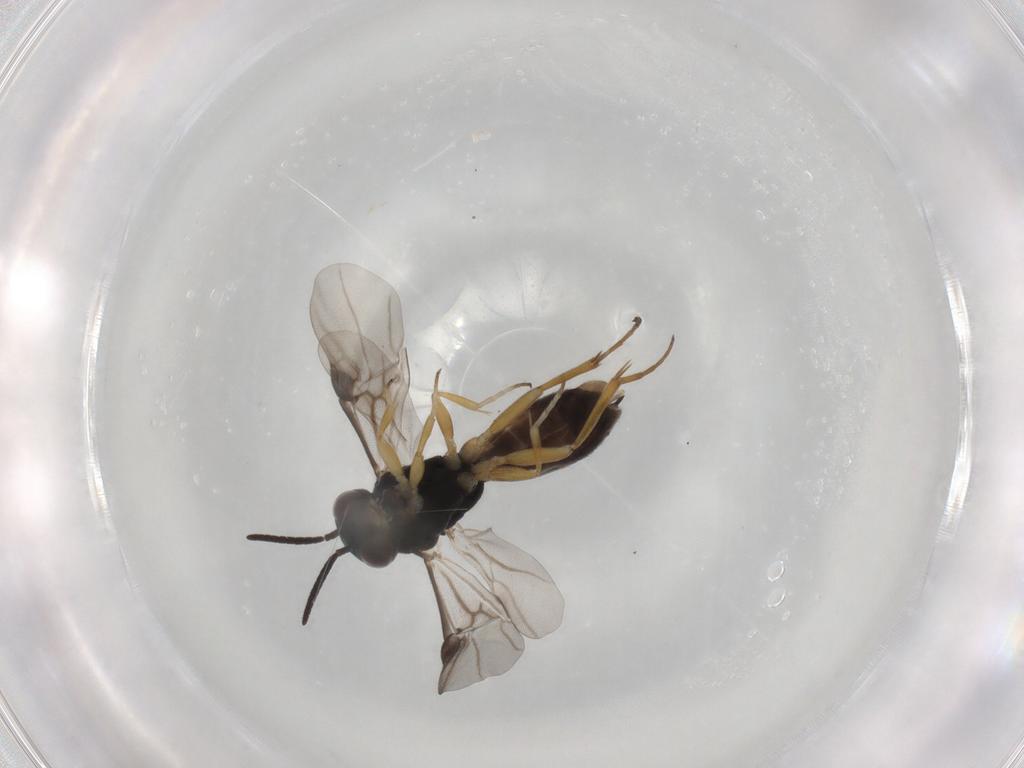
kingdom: Animalia
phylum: Arthropoda
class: Insecta
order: Hymenoptera
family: Braconidae
